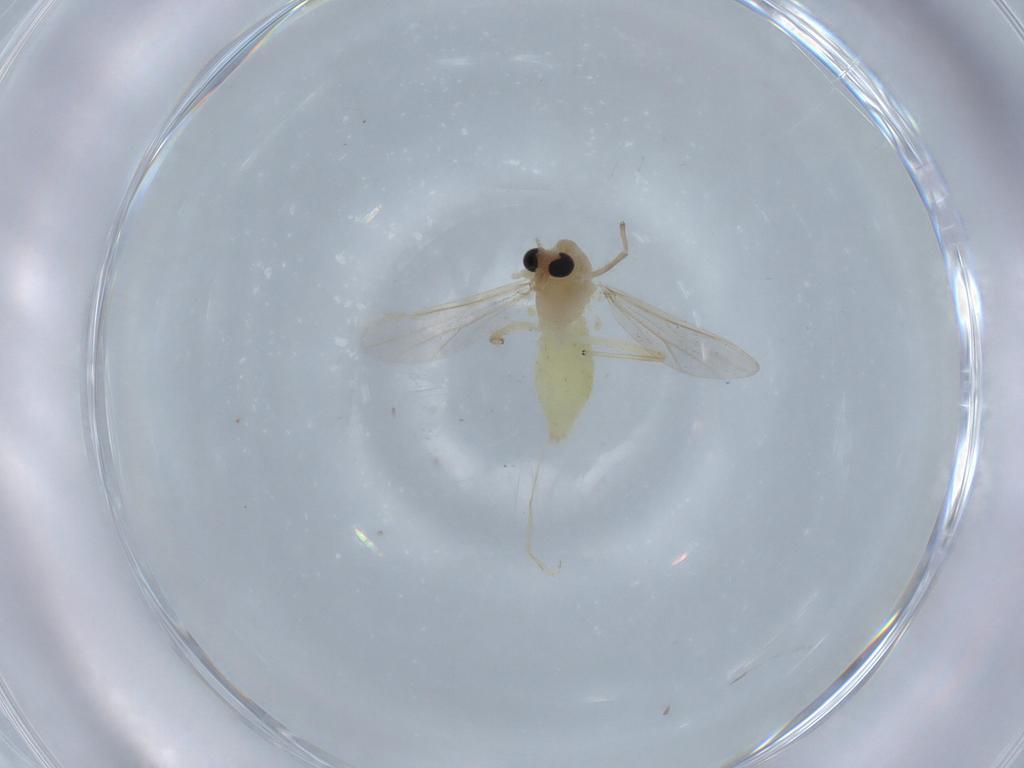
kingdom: Animalia
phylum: Arthropoda
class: Insecta
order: Diptera
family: Chironomidae
